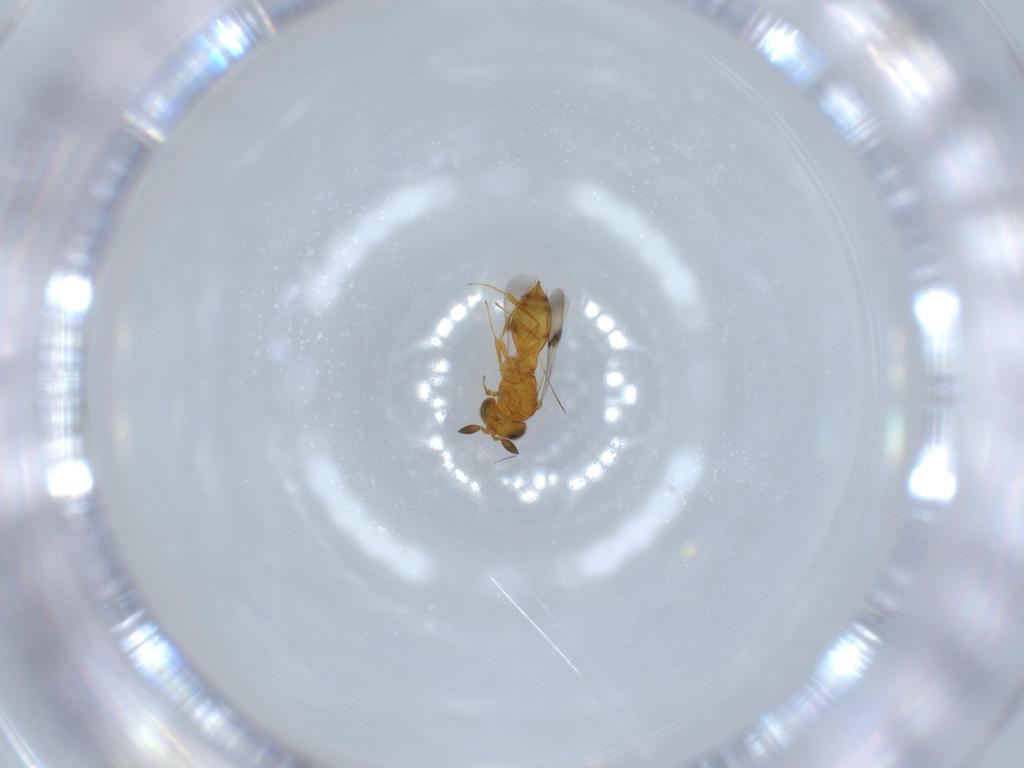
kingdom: Animalia
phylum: Arthropoda
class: Insecta
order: Hymenoptera
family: Scelionidae
